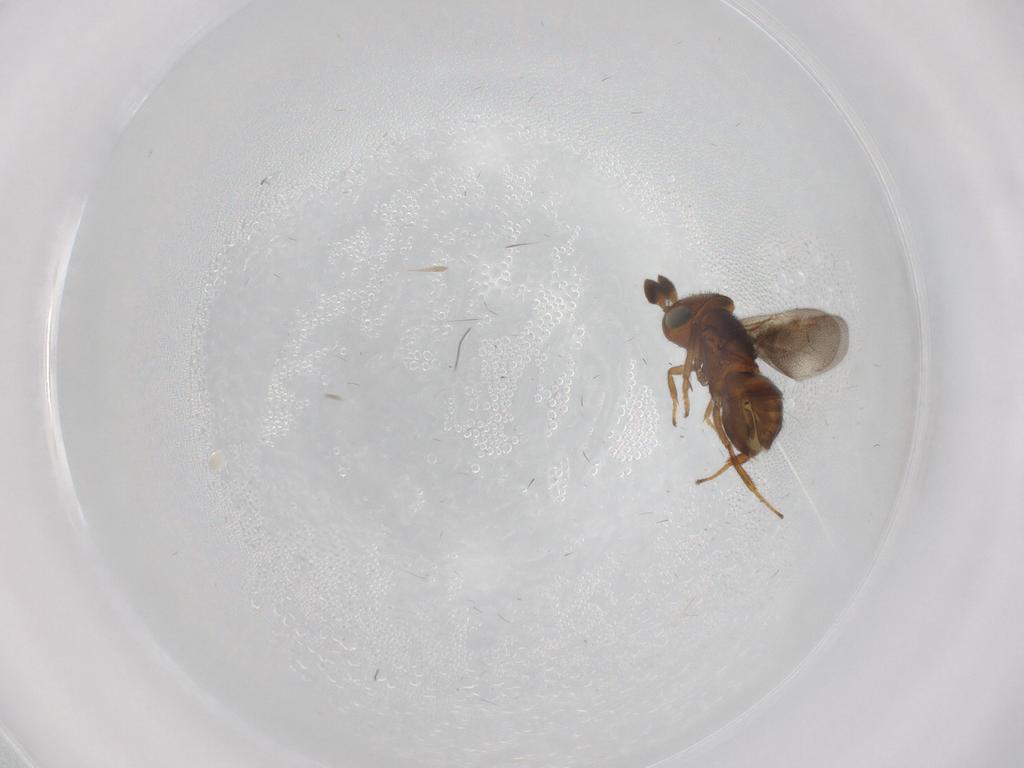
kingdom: Animalia
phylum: Arthropoda
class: Insecta
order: Hymenoptera
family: Encyrtidae
